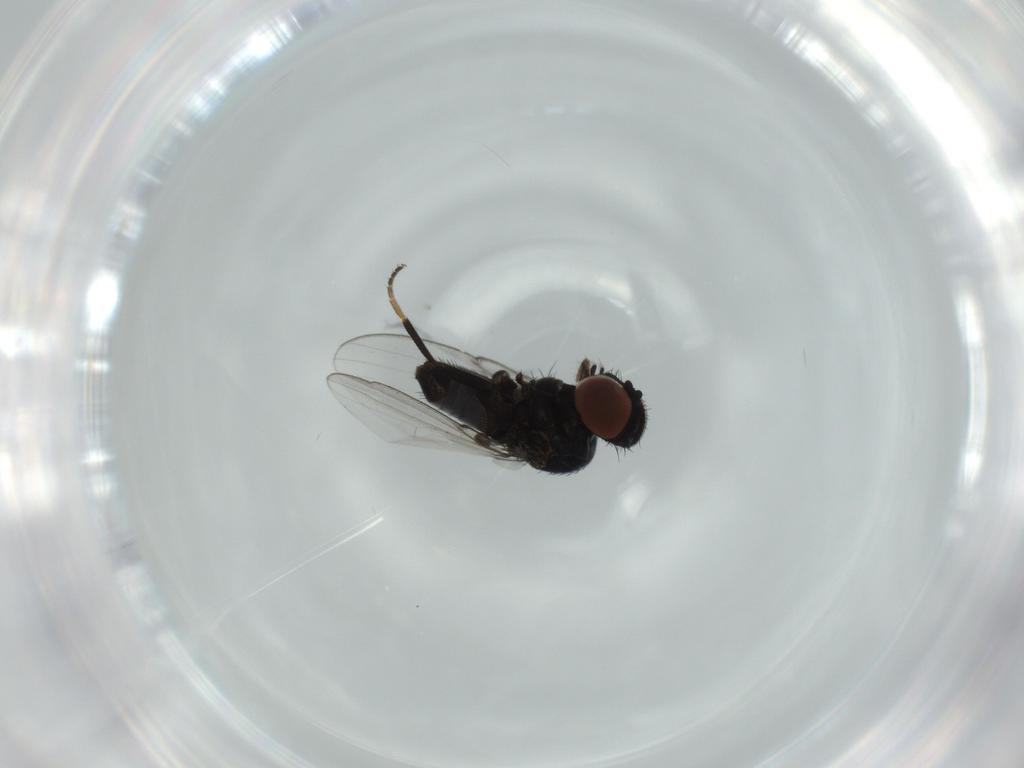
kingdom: Animalia
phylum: Arthropoda
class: Insecta
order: Diptera
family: Milichiidae
